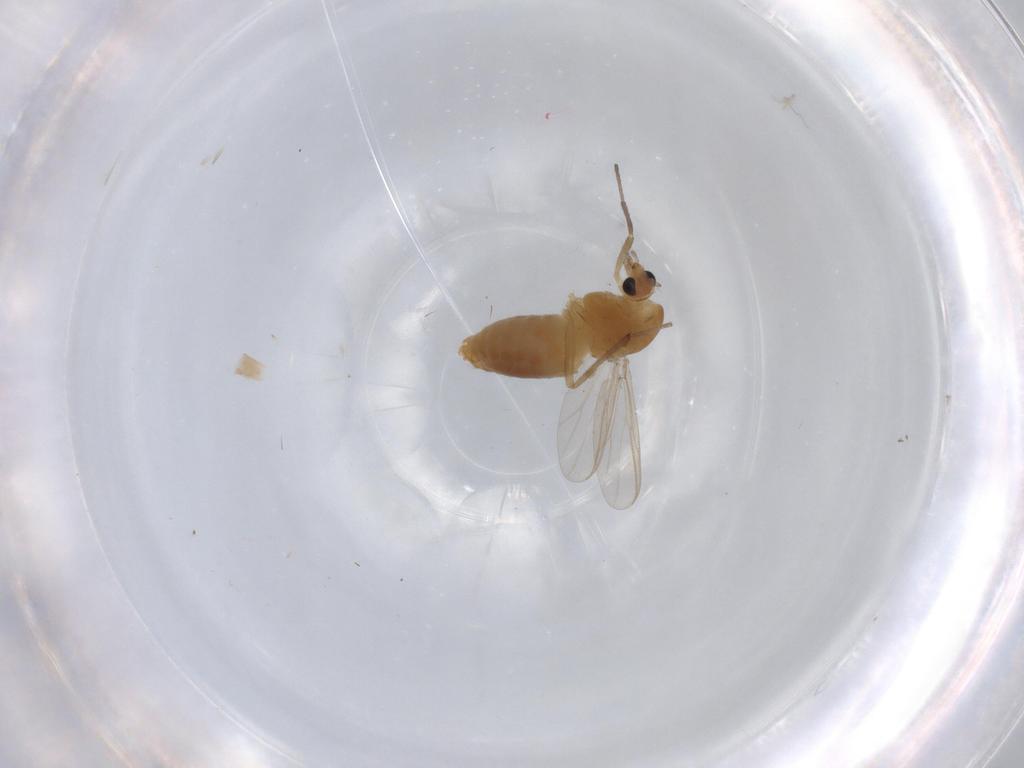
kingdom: Animalia
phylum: Arthropoda
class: Insecta
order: Diptera
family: Chironomidae
